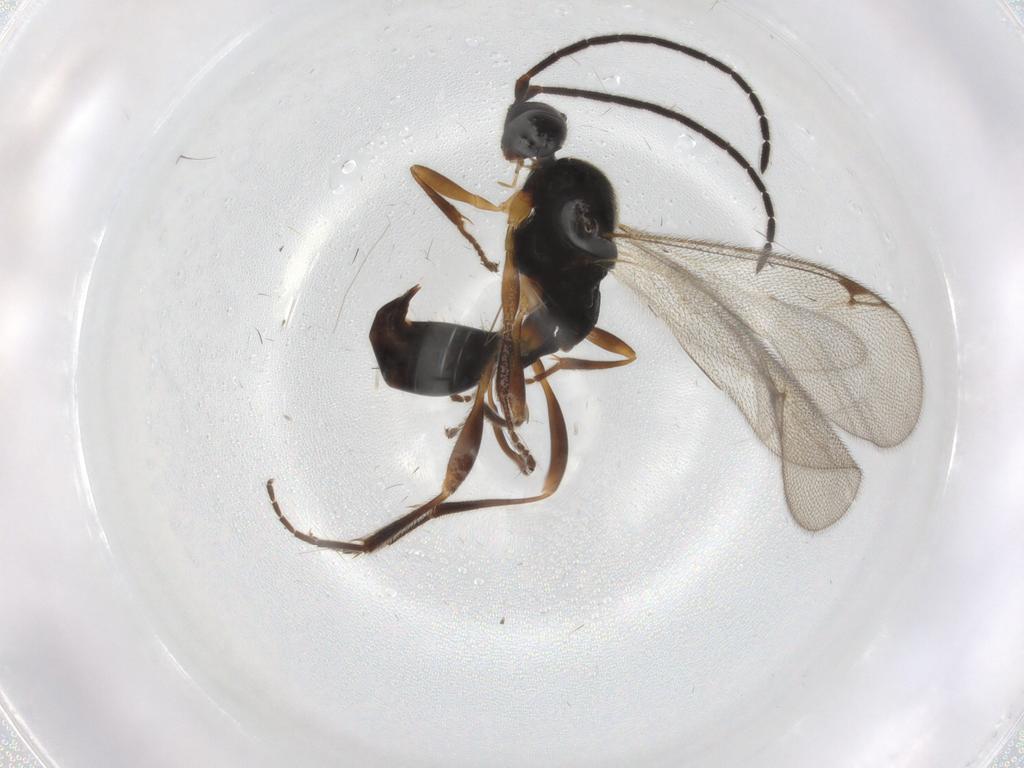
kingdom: Animalia
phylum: Arthropoda
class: Insecta
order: Hymenoptera
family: Proctotrupidae
